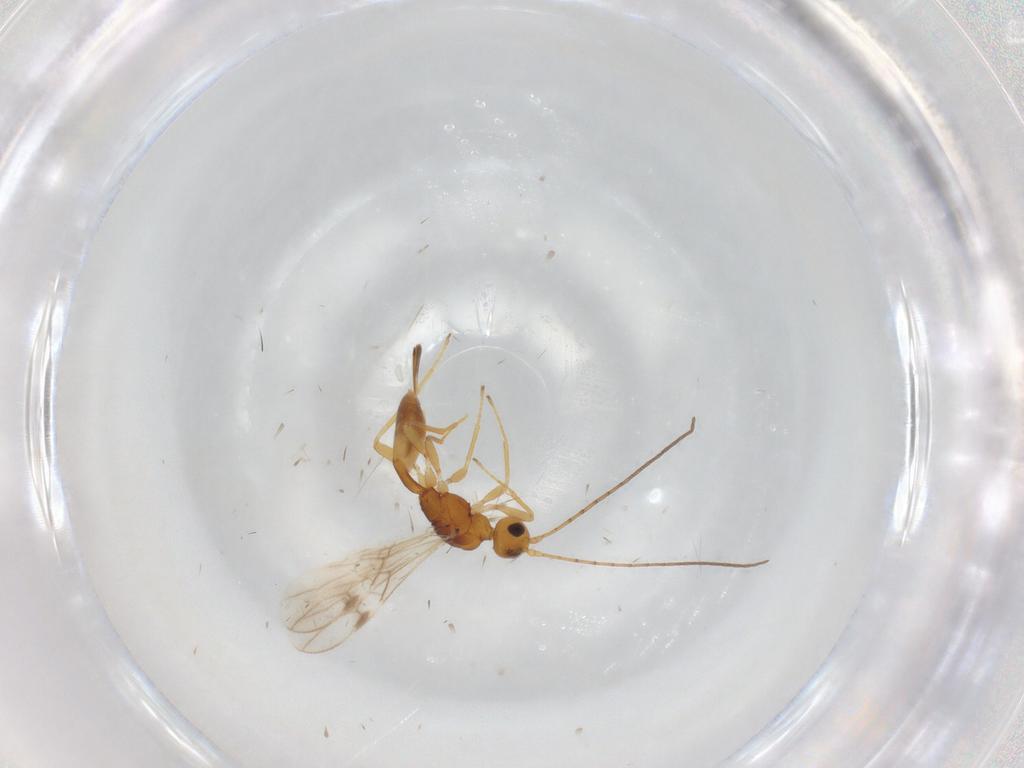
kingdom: Animalia
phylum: Arthropoda
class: Insecta
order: Hymenoptera
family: Braconidae
